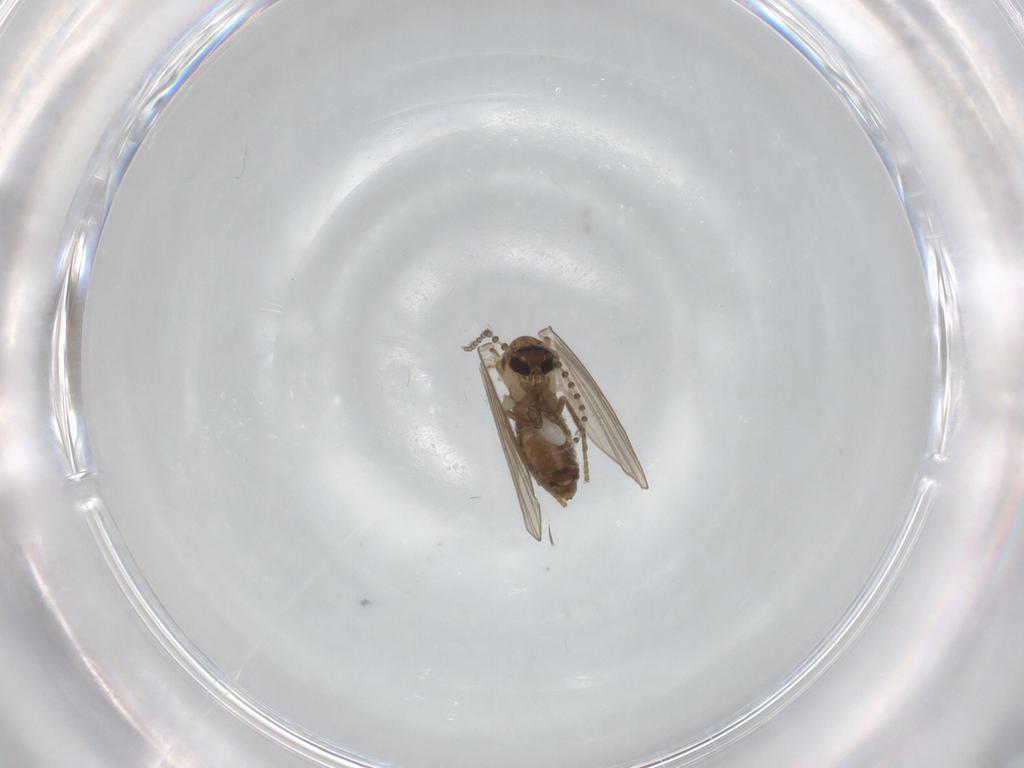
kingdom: Animalia
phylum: Arthropoda
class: Insecta
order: Diptera
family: Psychodidae
